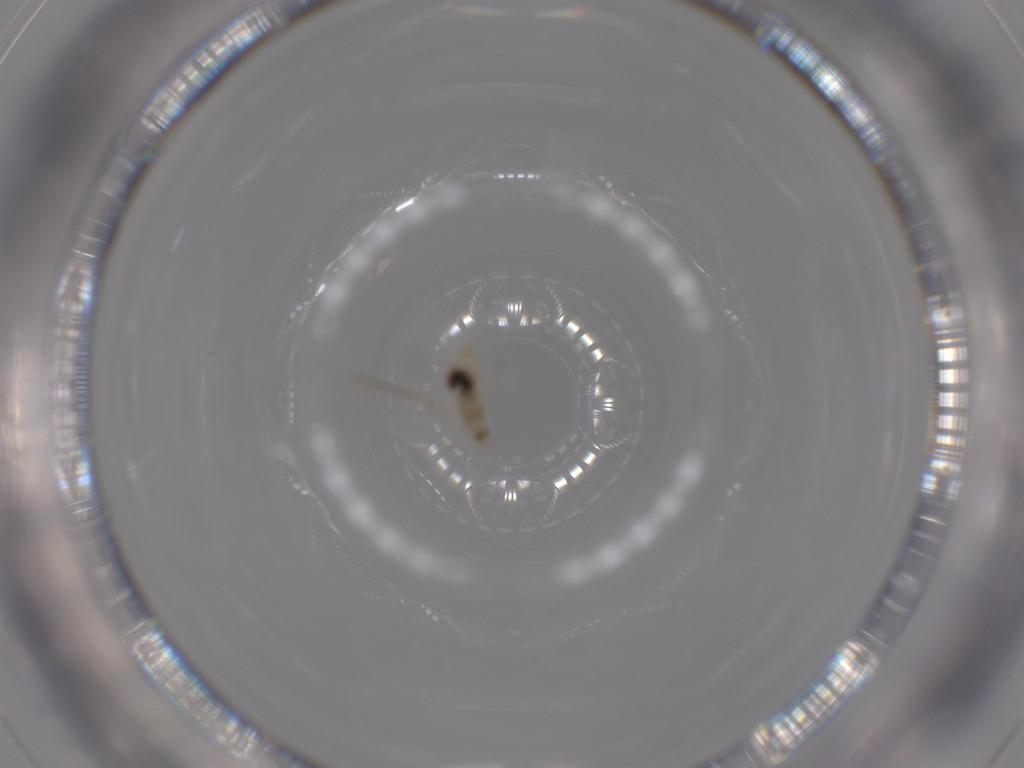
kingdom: Animalia
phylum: Arthropoda
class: Insecta
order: Diptera
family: Cecidomyiidae
